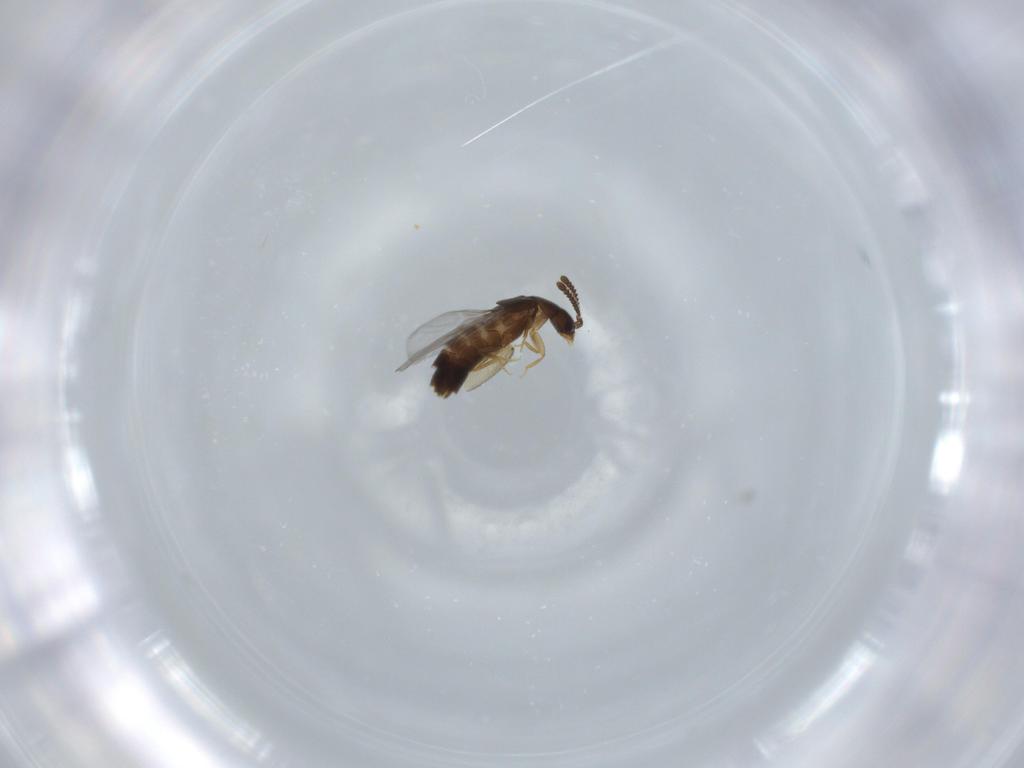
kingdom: Animalia
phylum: Arthropoda
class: Insecta
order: Coleoptera
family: Staphylinidae
